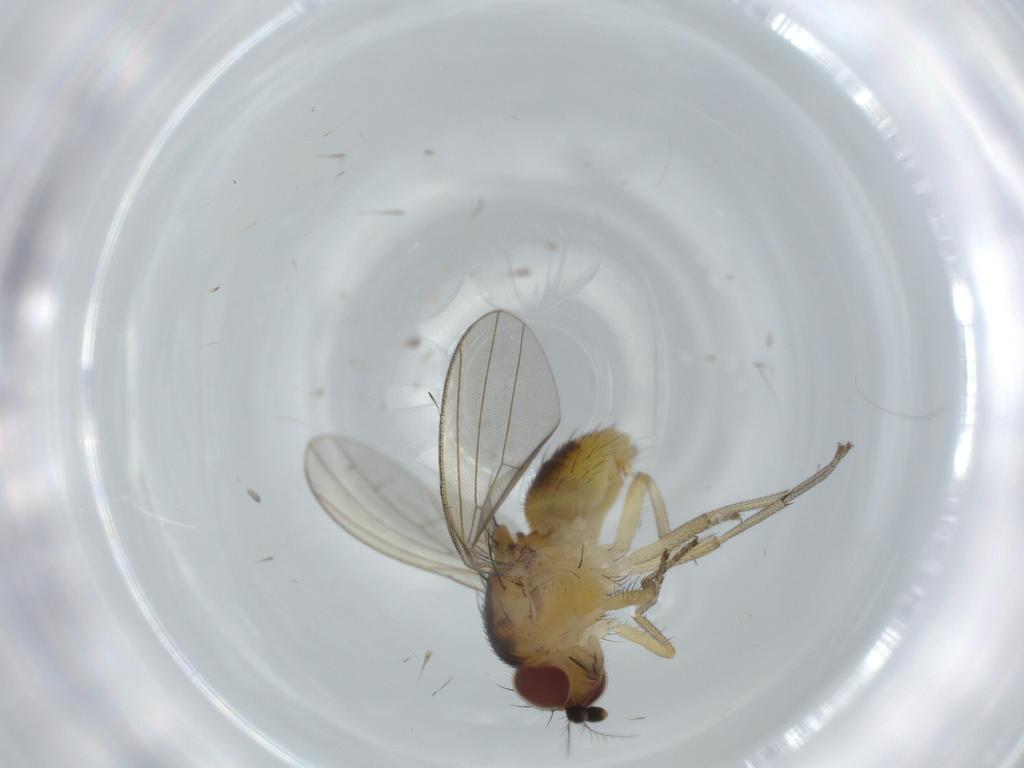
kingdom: Animalia
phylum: Arthropoda
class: Insecta
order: Diptera
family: Lauxaniidae
